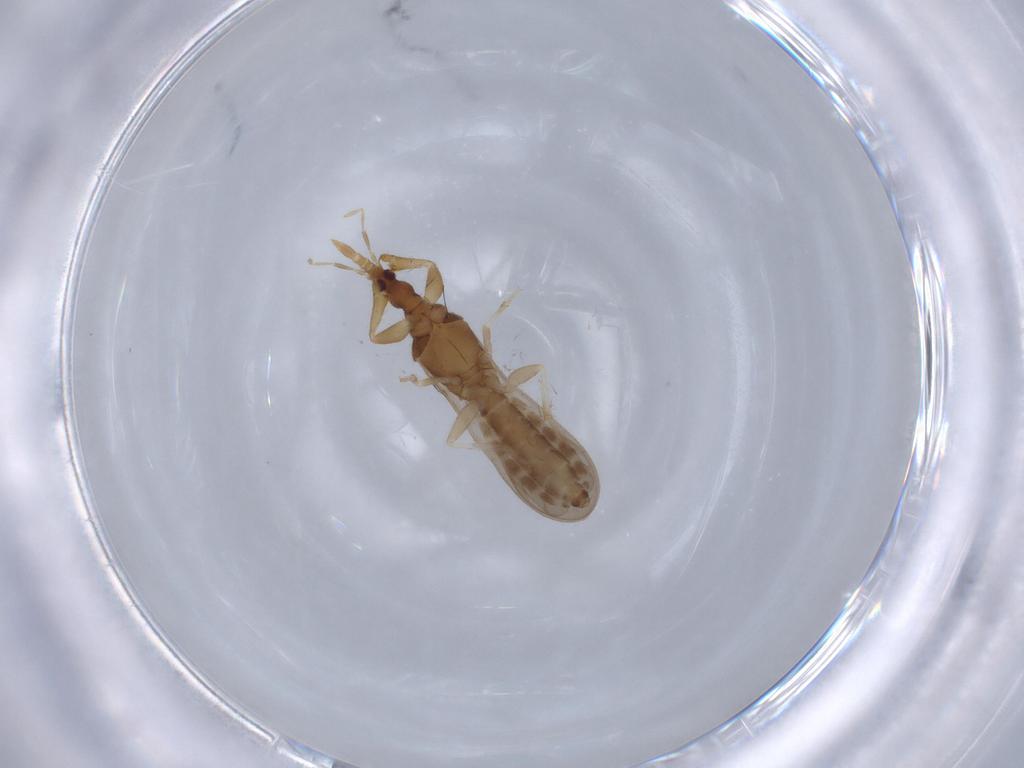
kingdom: Animalia
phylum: Arthropoda
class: Insecta
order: Hemiptera
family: Enicocephalidae
